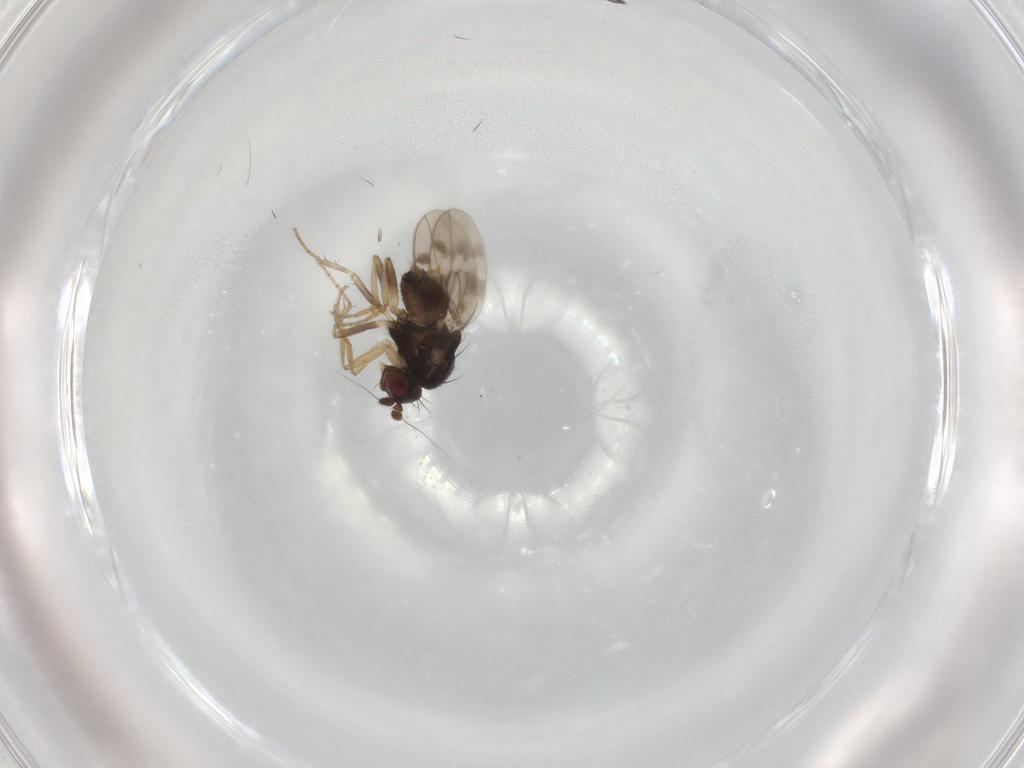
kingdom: Animalia
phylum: Arthropoda
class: Insecta
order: Diptera
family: Ceratopogonidae
